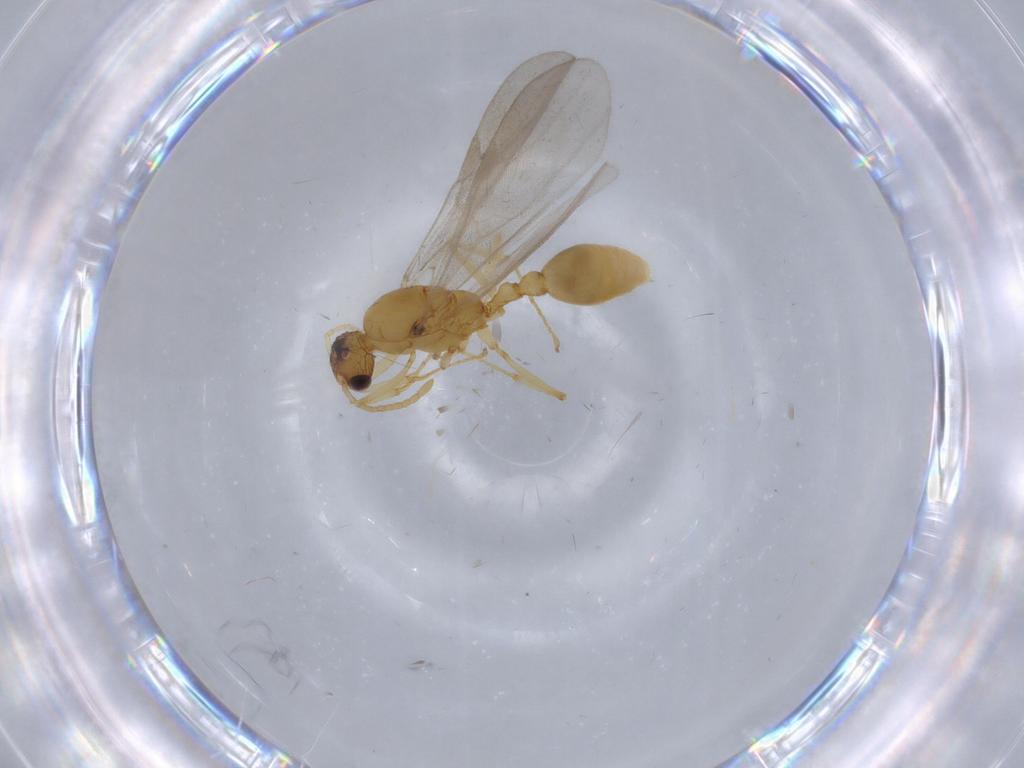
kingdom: Animalia
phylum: Arthropoda
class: Insecta
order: Hymenoptera
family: Formicidae
